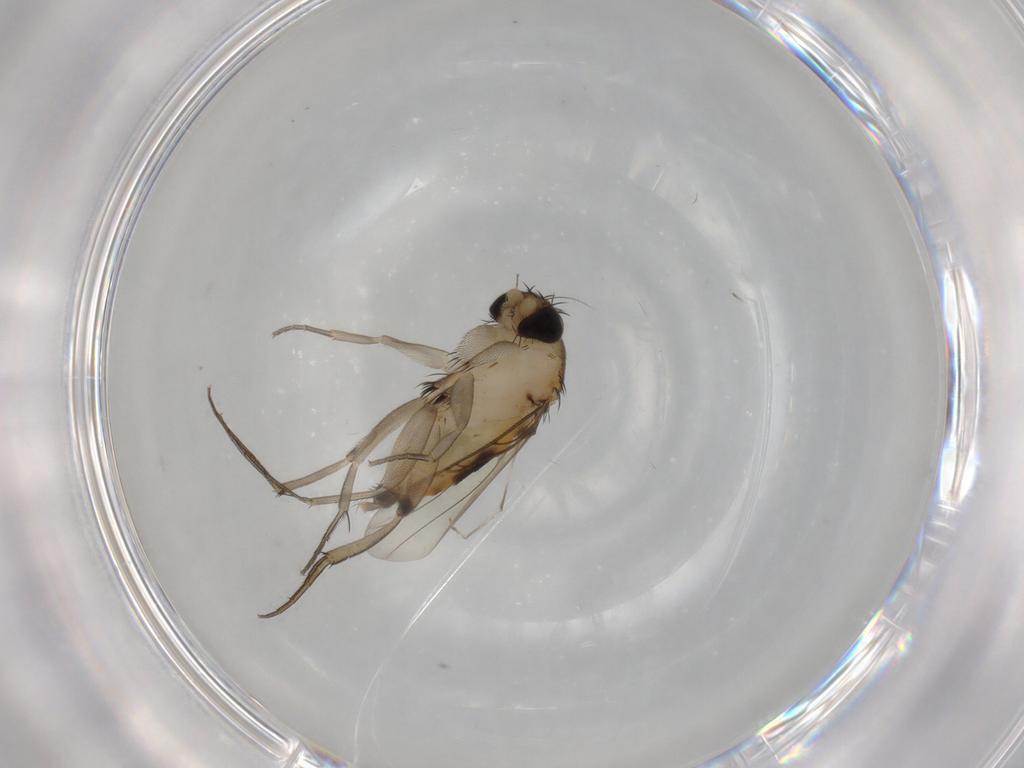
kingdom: Animalia
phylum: Arthropoda
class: Insecta
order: Diptera
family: Phoridae
